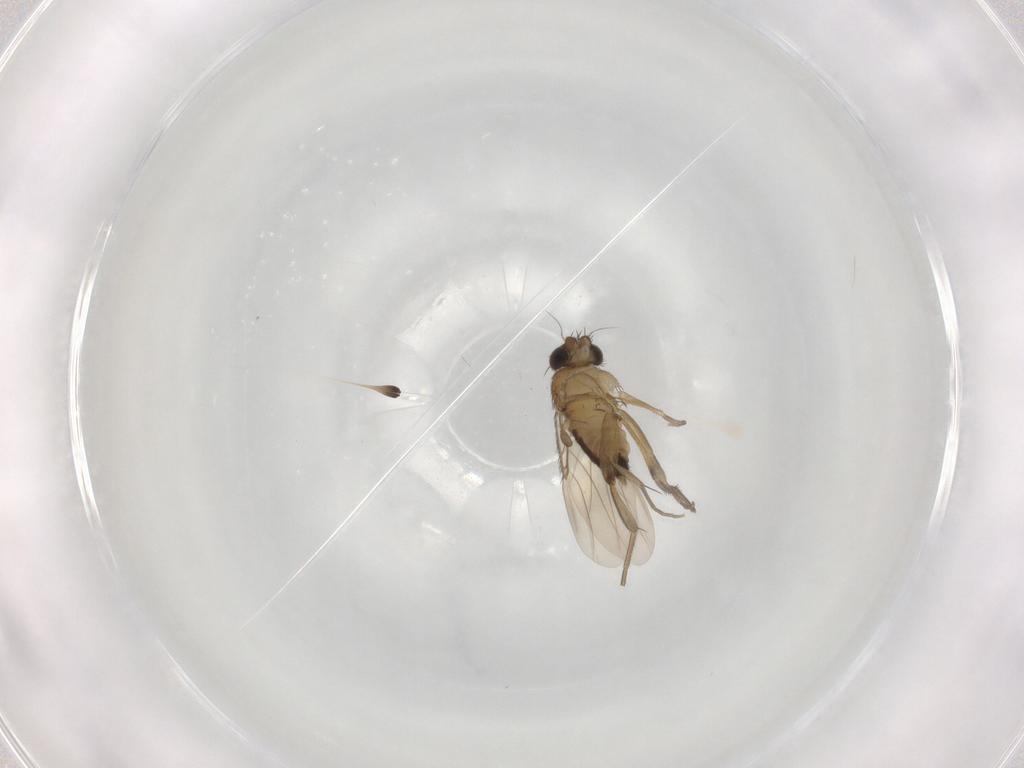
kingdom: Animalia
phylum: Arthropoda
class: Insecta
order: Diptera
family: Phoridae
